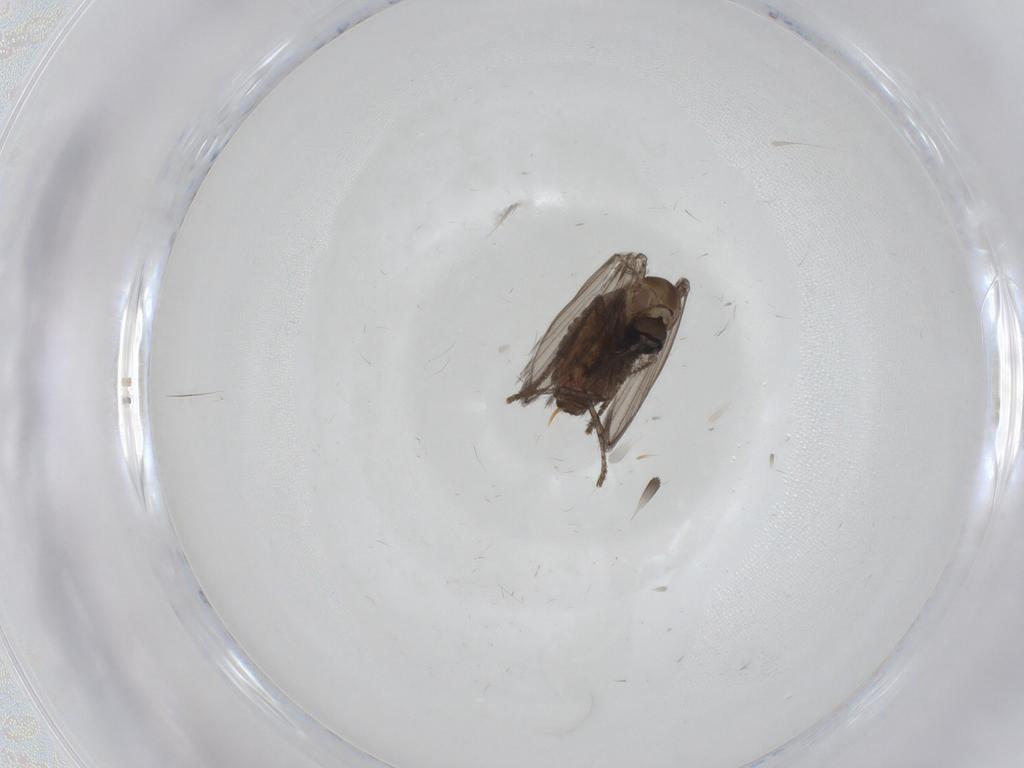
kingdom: Animalia
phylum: Arthropoda
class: Insecta
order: Diptera
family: Psychodidae
